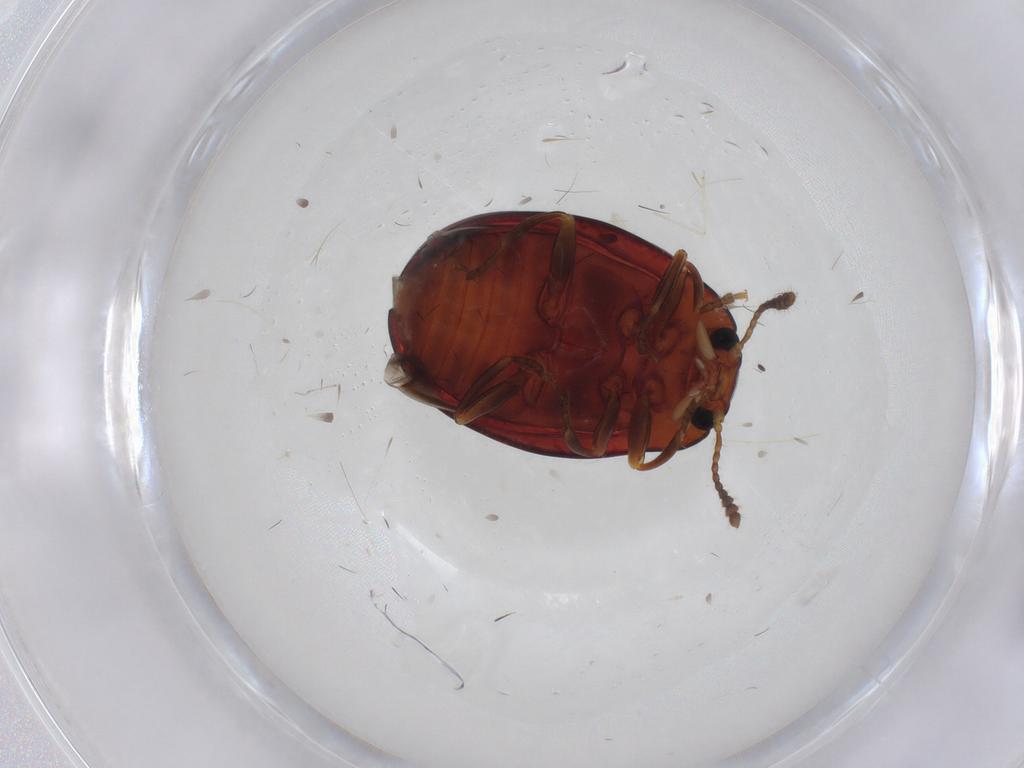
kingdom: Animalia
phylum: Arthropoda
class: Insecta
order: Coleoptera
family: Erotylidae
